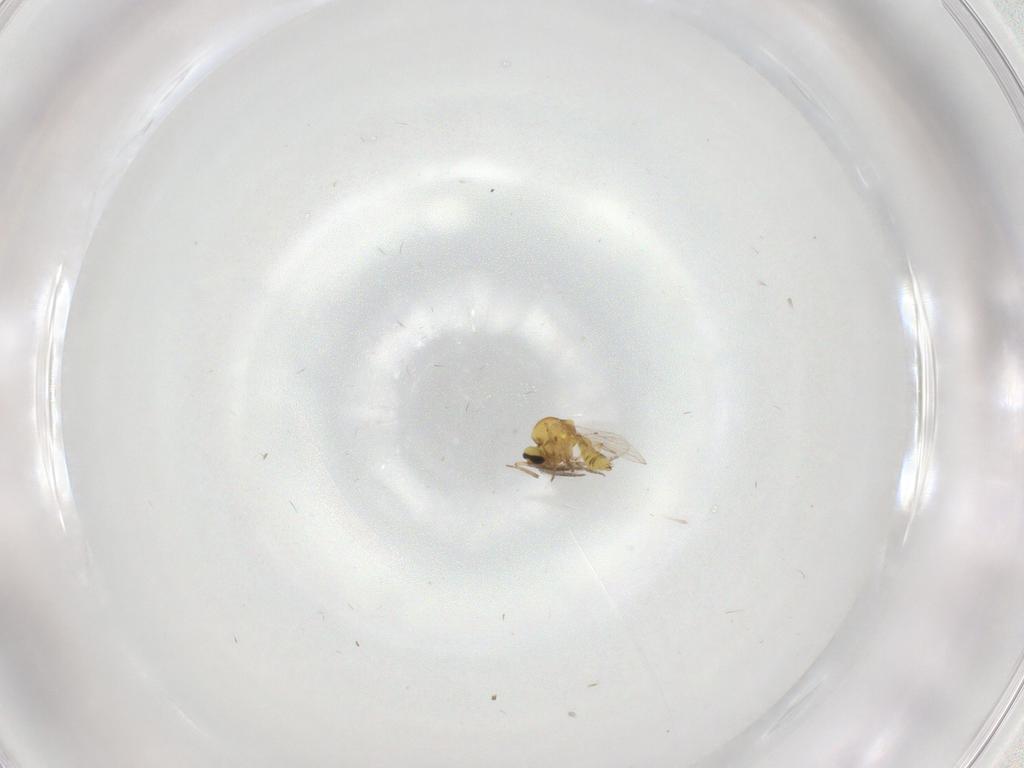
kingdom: Animalia
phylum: Arthropoda
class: Insecta
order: Diptera
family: Ceratopogonidae
